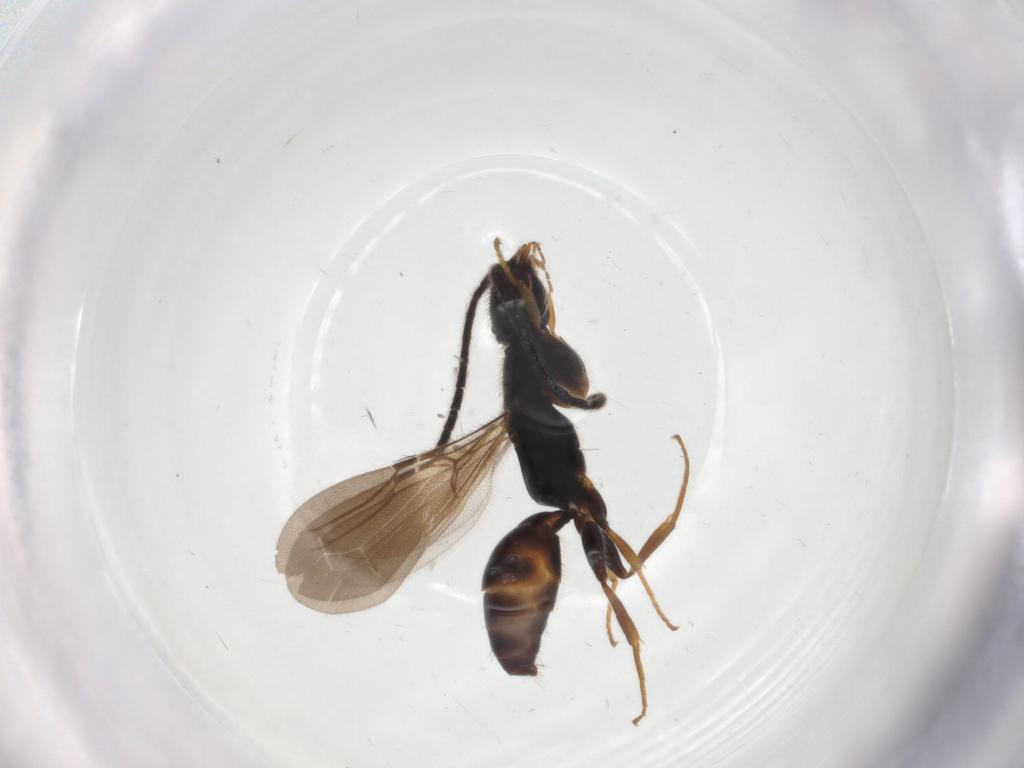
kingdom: Animalia
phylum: Arthropoda
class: Insecta
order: Hymenoptera
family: Bethylidae
